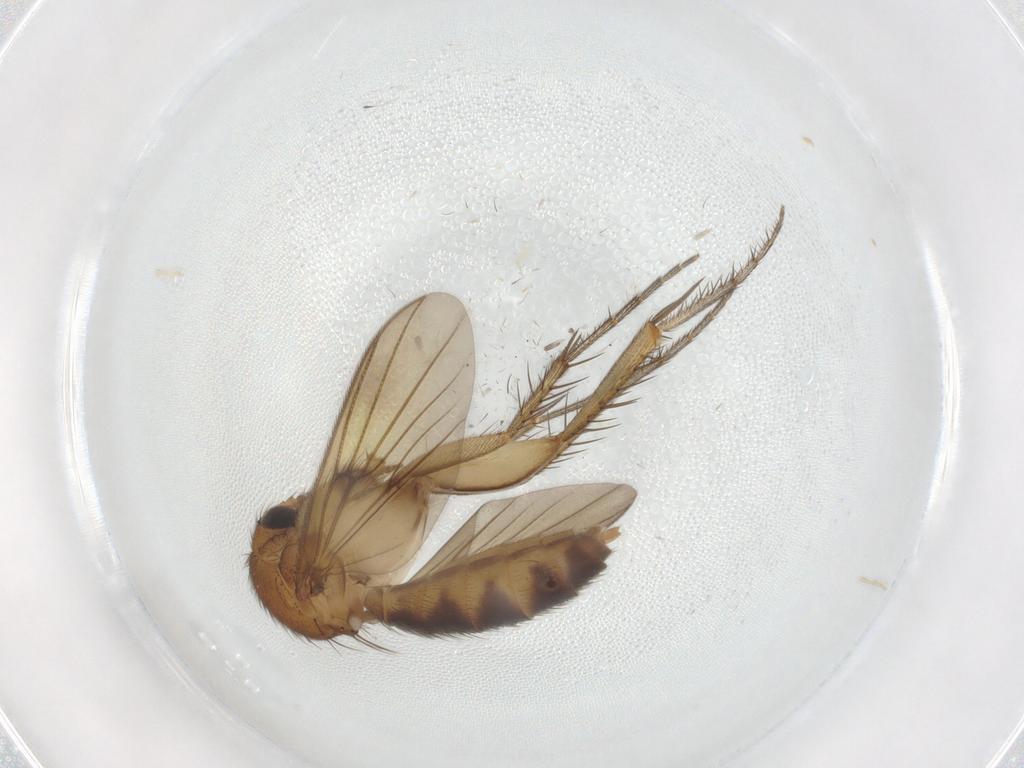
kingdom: Animalia
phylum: Arthropoda
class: Insecta
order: Diptera
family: Mycetophilidae
